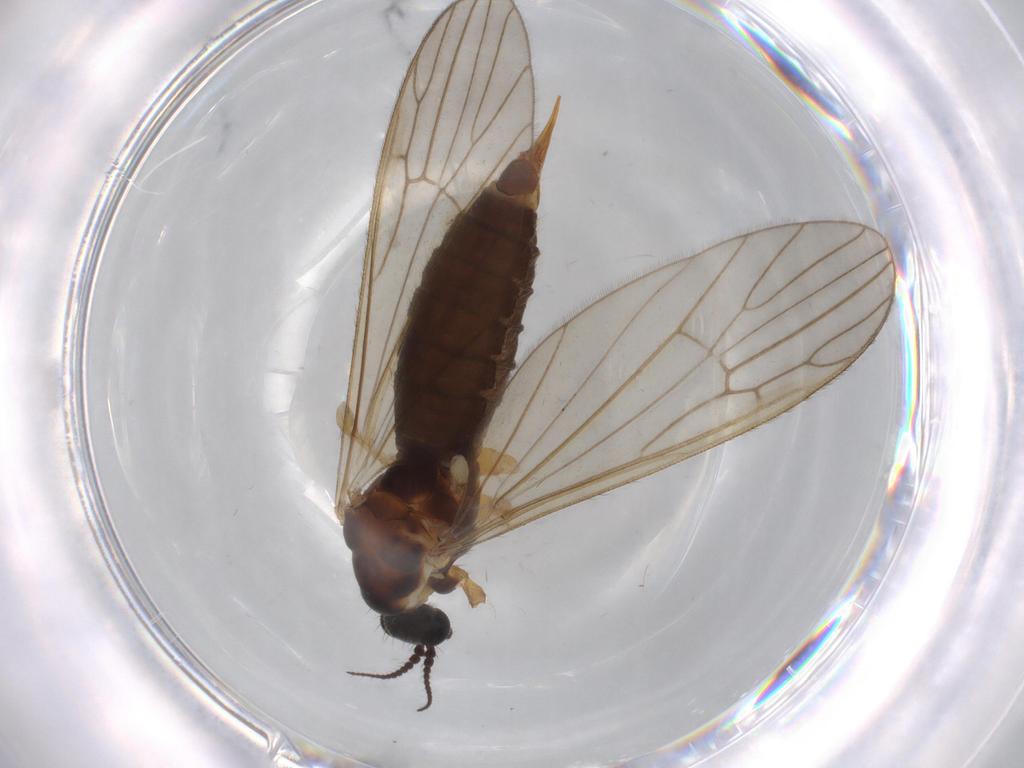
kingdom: Animalia
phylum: Arthropoda
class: Insecta
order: Diptera
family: Agromyzidae
